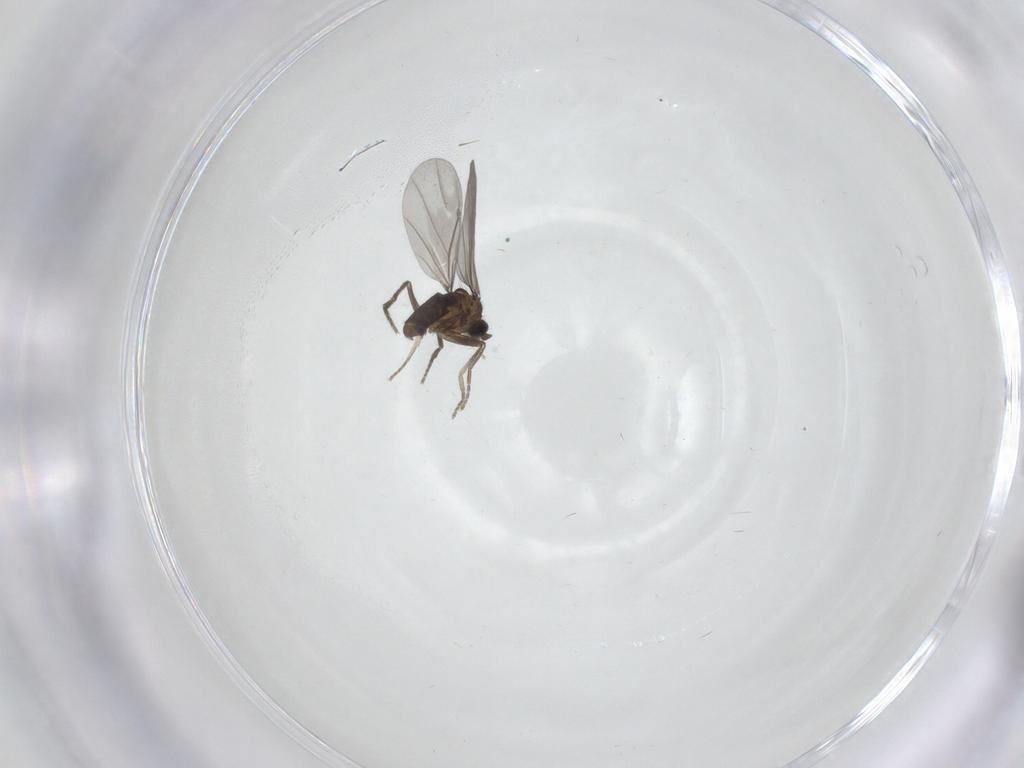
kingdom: Animalia
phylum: Arthropoda
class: Insecta
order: Diptera
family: Phoridae
